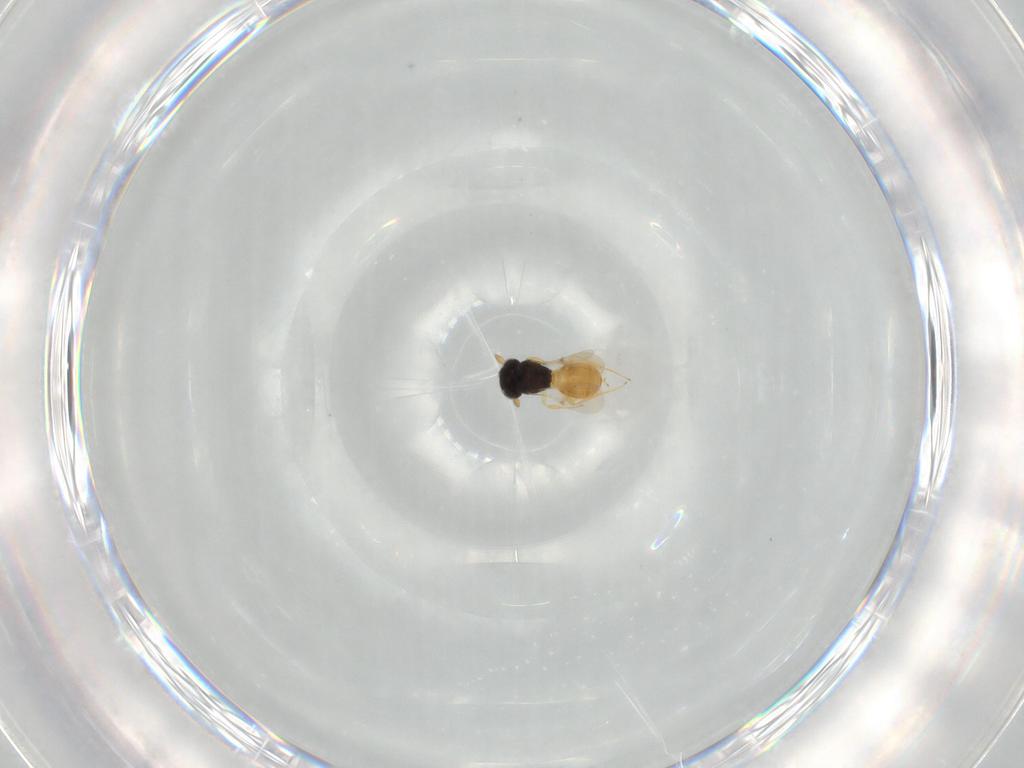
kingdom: Animalia
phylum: Arthropoda
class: Insecta
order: Hymenoptera
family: Scelionidae
